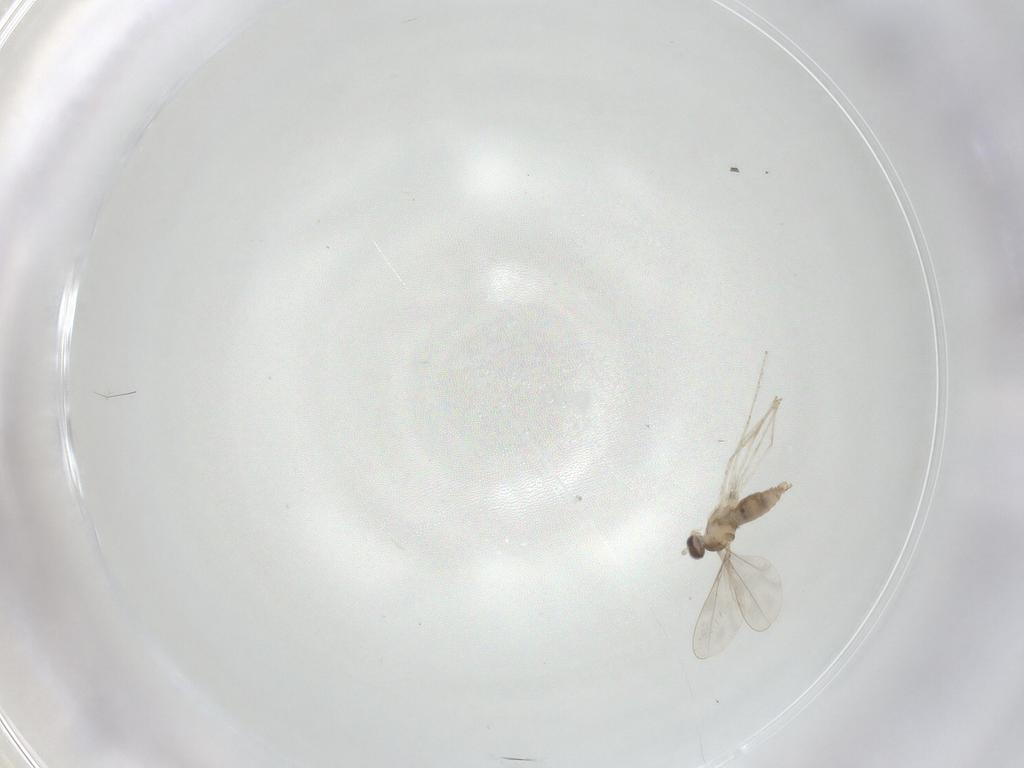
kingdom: Animalia
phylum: Arthropoda
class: Insecta
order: Diptera
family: Cecidomyiidae
